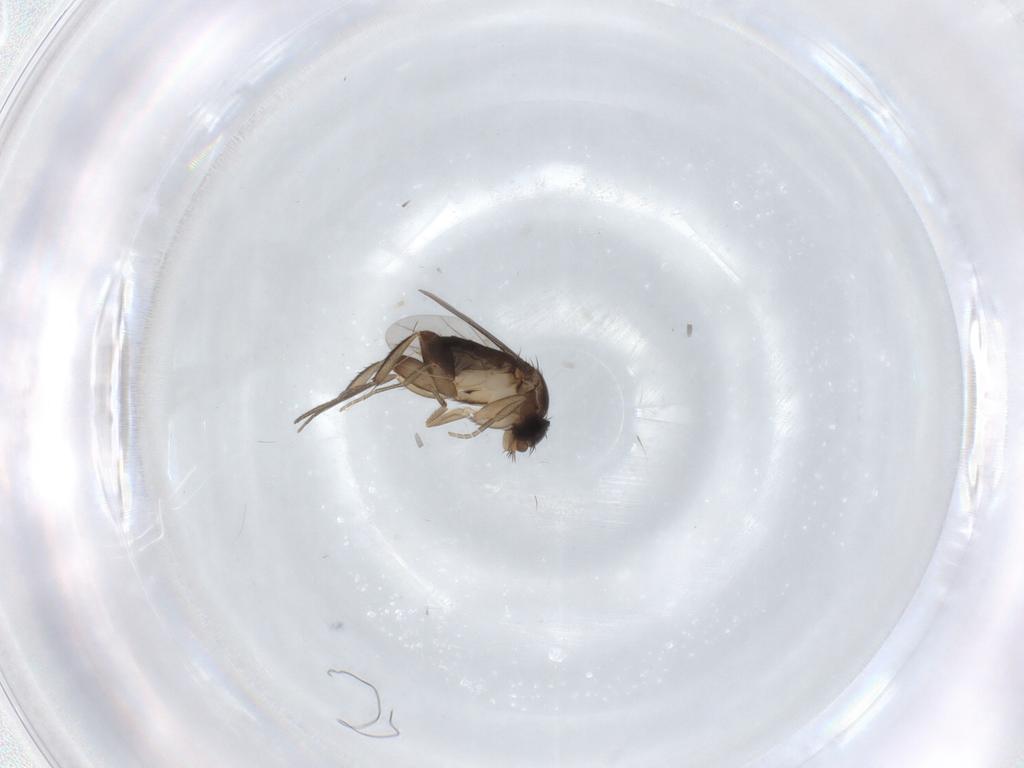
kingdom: Animalia
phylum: Arthropoda
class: Insecta
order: Diptera
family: Phoridae
